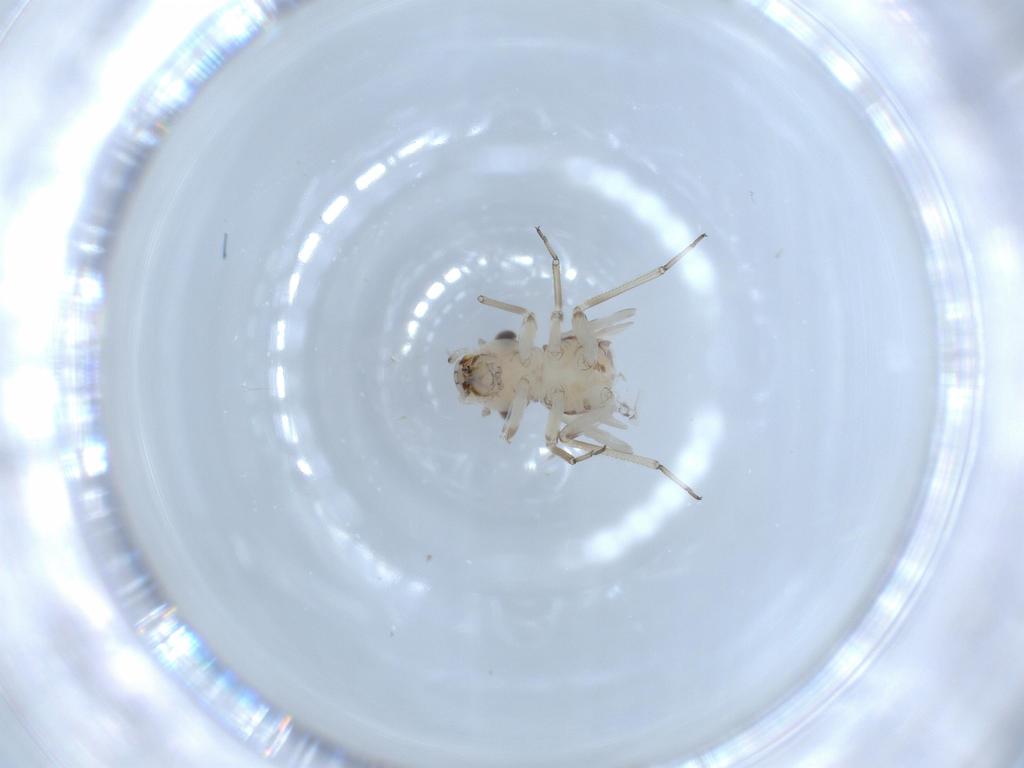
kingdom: Animalia
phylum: Arthropoda
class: Insecta
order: Psocodea
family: Psocidae
